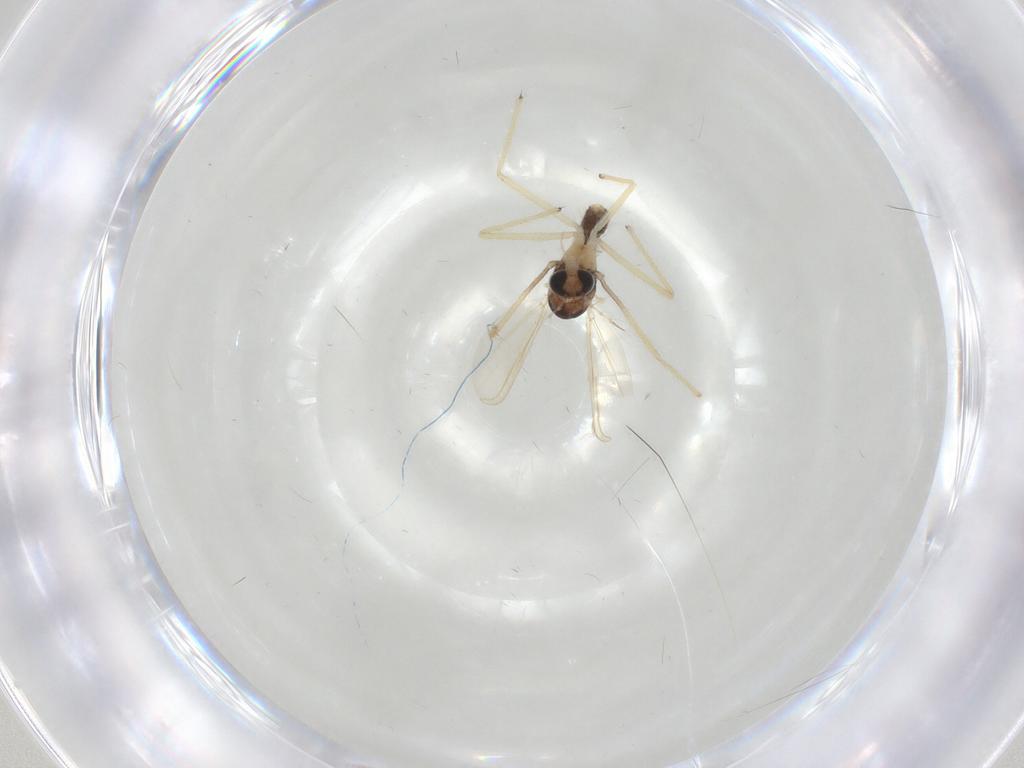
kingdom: Animalia
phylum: Arthropoda
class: Insecta
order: Diptera
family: Chironomidae
